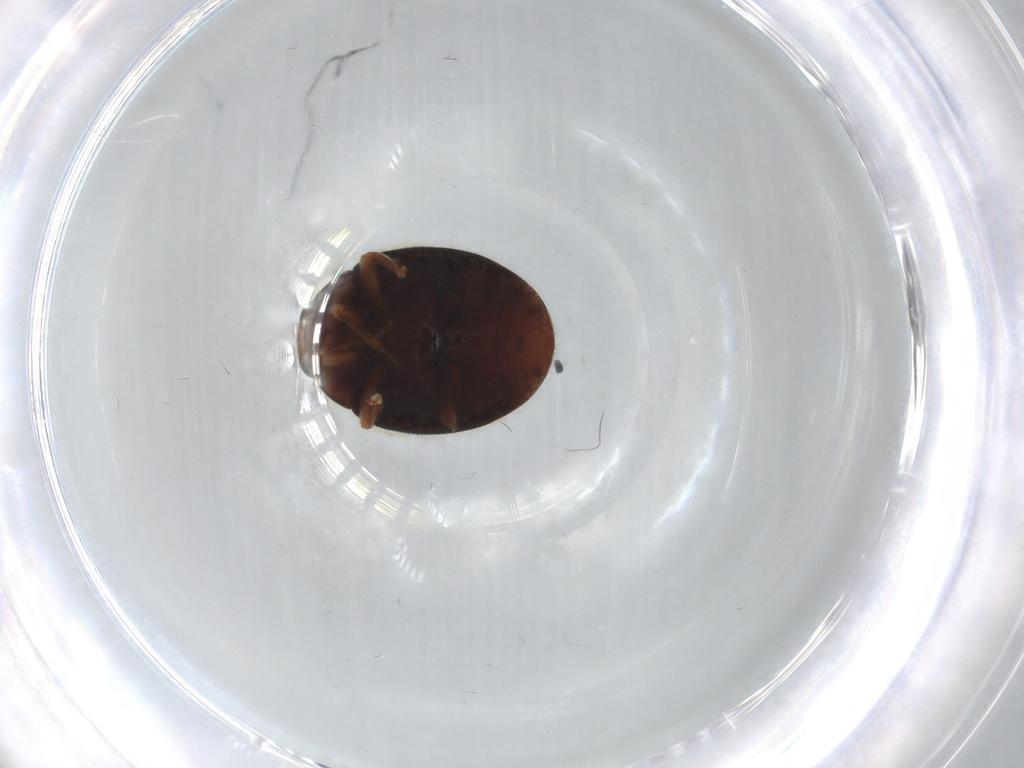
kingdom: Animalia
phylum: Arthropoda
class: Insecta
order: Coleoptera
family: Coccinellidae
